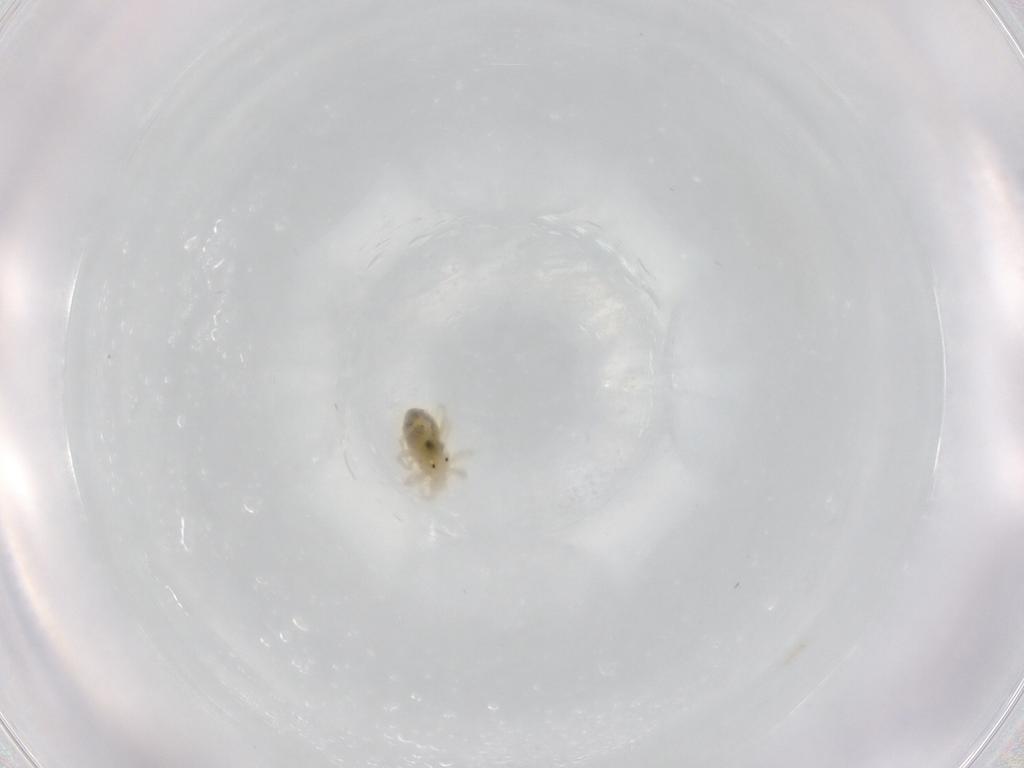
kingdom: Animalia
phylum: Arthropoda
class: Arachnida
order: Trombidiformes
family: Anystidae
